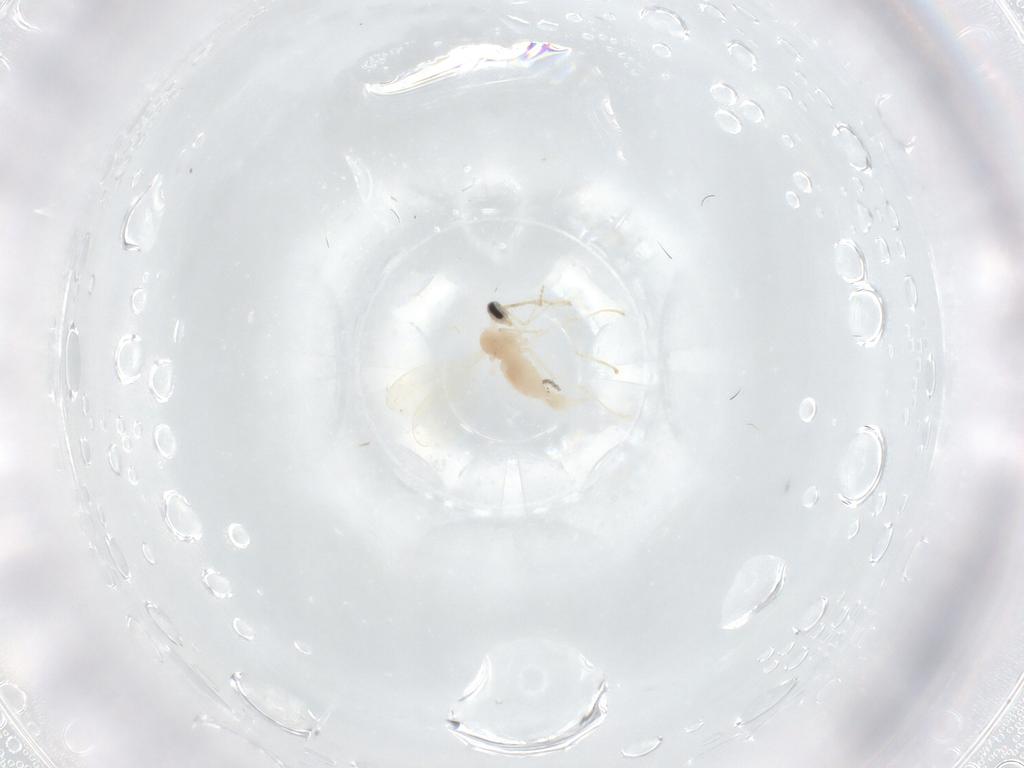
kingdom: Animalia
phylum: Arthropoda
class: Insecta
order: Diptera
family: Cecidomyiidae
